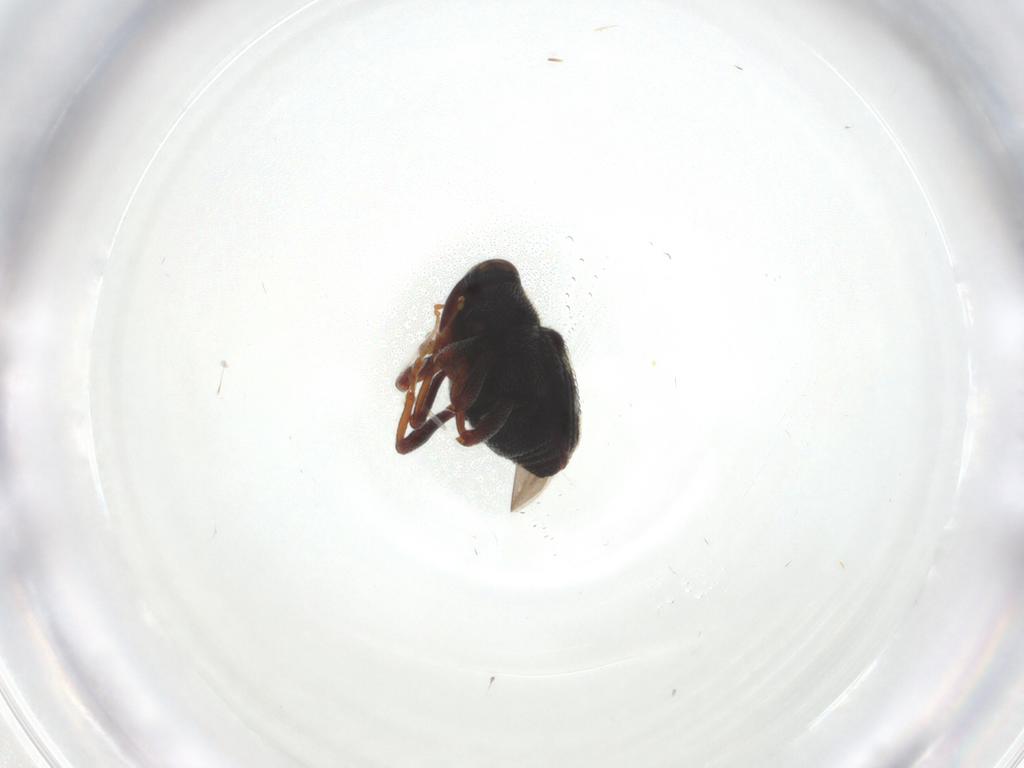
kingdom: Animalia
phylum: Arthropoda
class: Insecta
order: Coleoptera
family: Curculionidae
